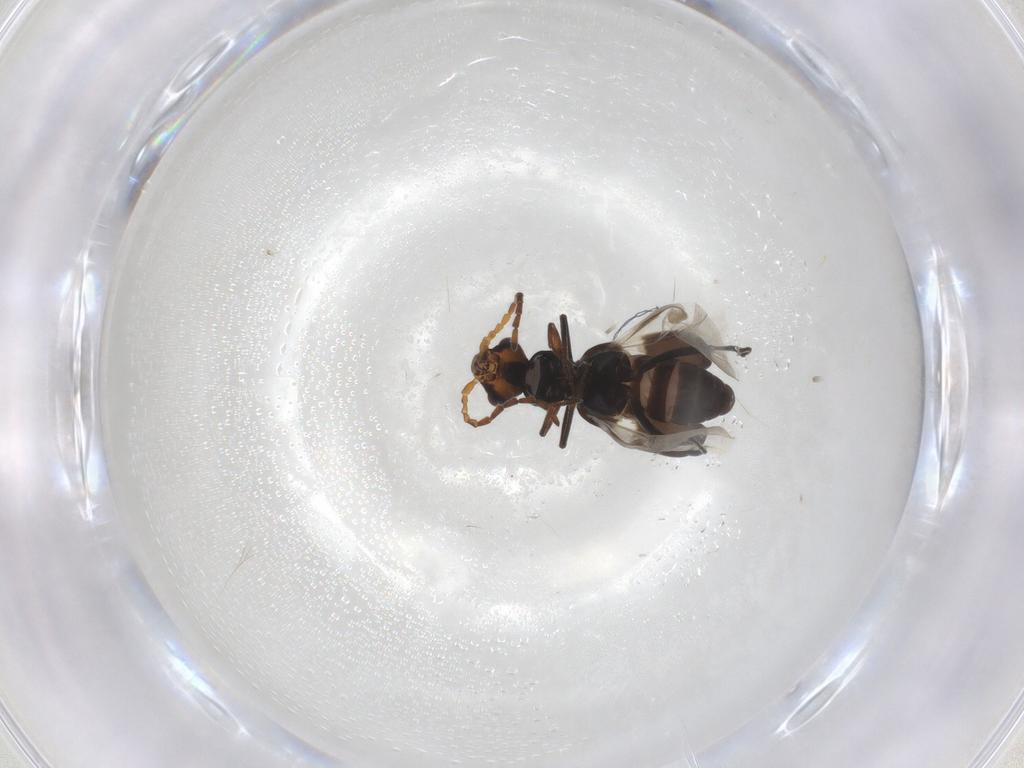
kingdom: Animalia
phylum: Arthropoda
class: Insecta
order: Coleoptera
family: Melyridae
